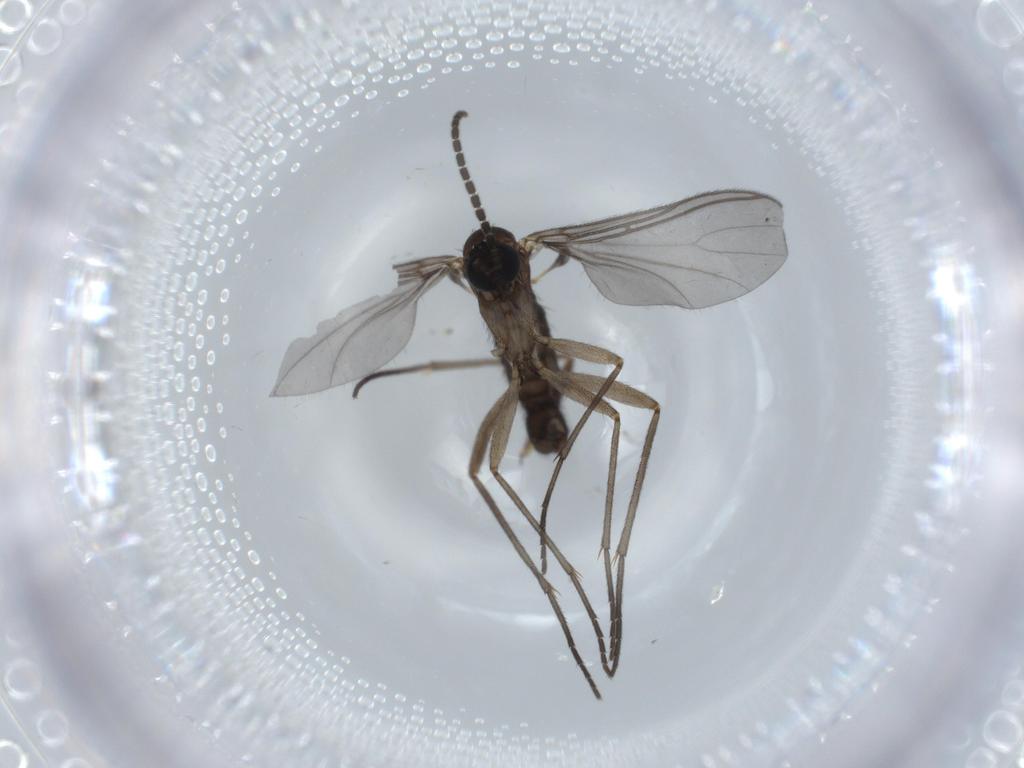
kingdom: Animalia
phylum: Arthropoda
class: Insecta
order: Diptera
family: Sciaridae
